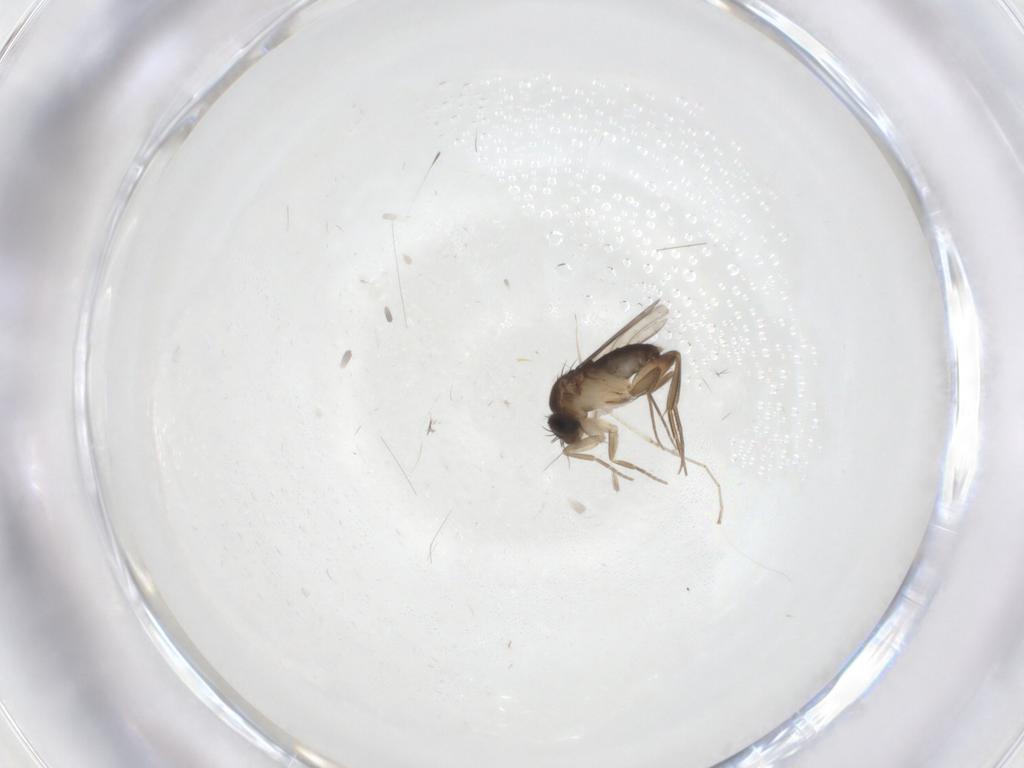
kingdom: Animalia
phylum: Arthropoda
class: Insecta
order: Diptera
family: Phoridae
